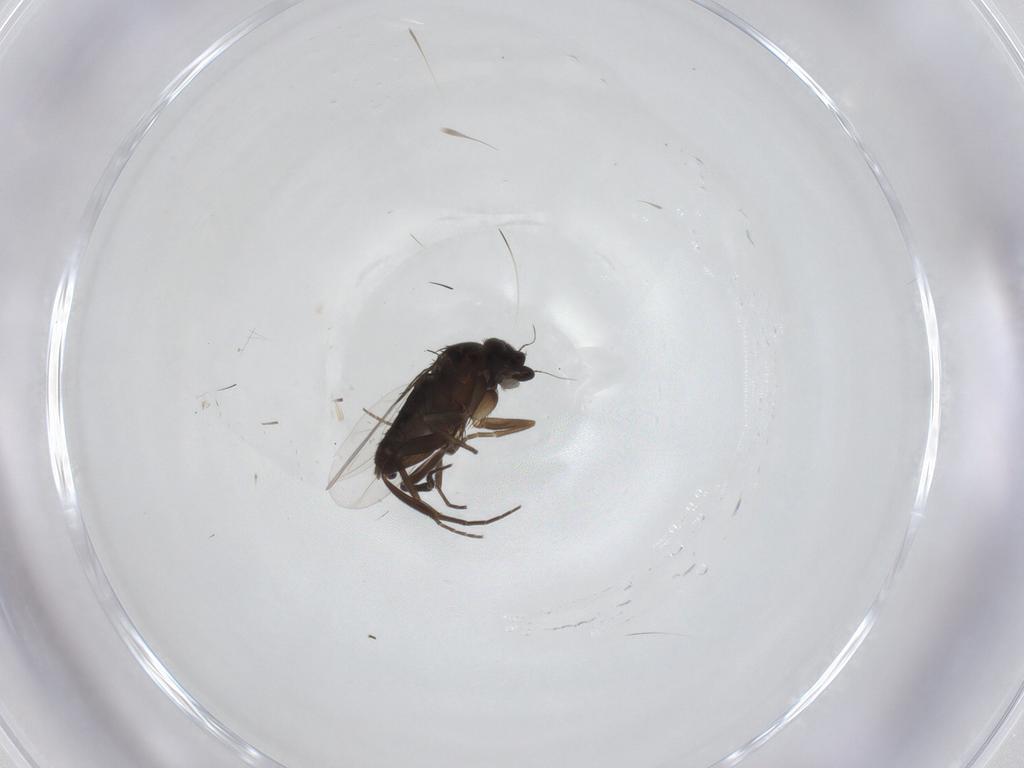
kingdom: Animalia
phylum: Arthropoda
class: Insecta
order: Diptera
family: Cecidomyiidae
